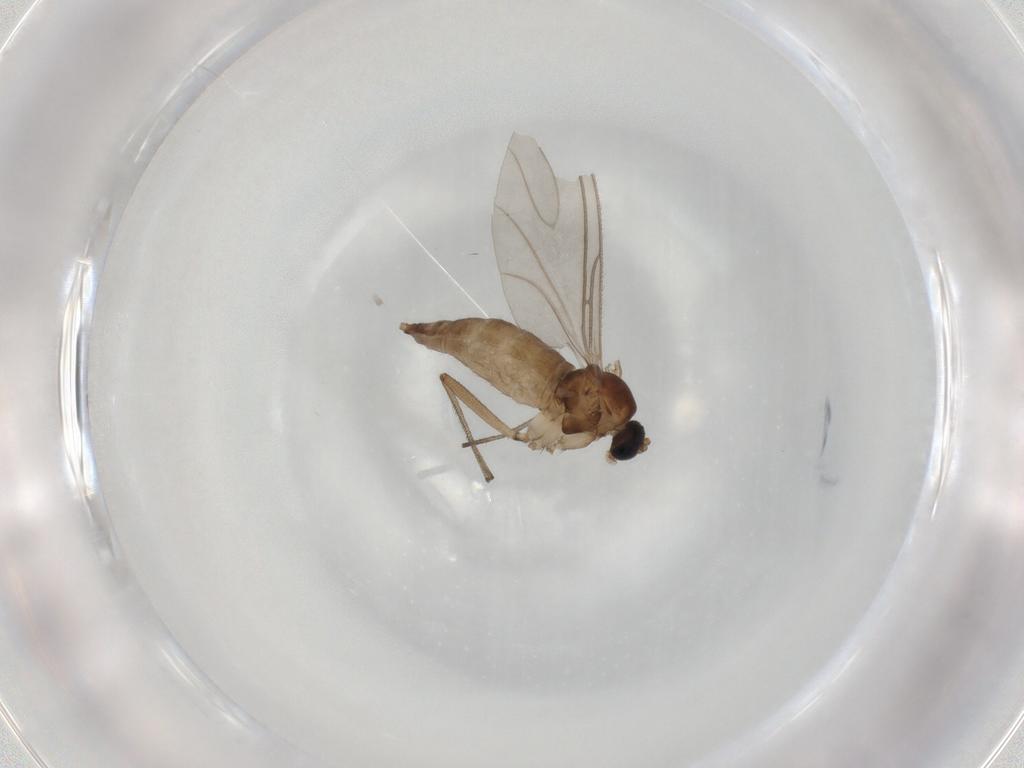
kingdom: Animalia
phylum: Arthropoda
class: Insecta
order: Diptera
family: Sciaridae
